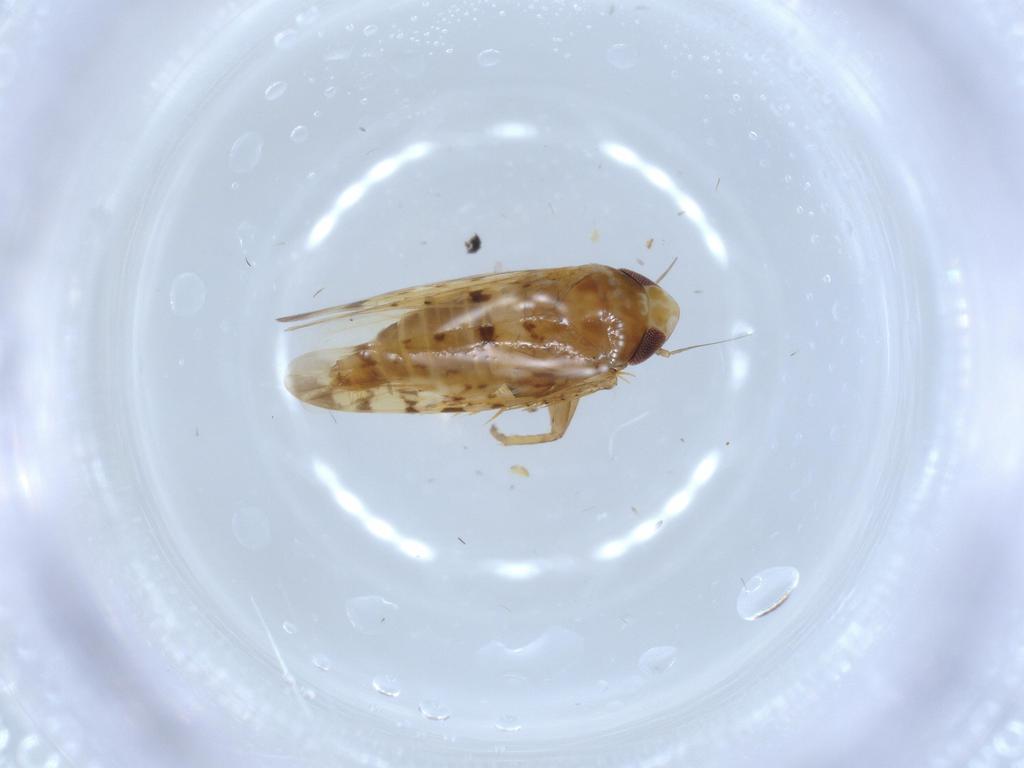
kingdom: Animalia
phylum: Arthropoda
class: Insecta
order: Hemiptera
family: Cicadellidae
